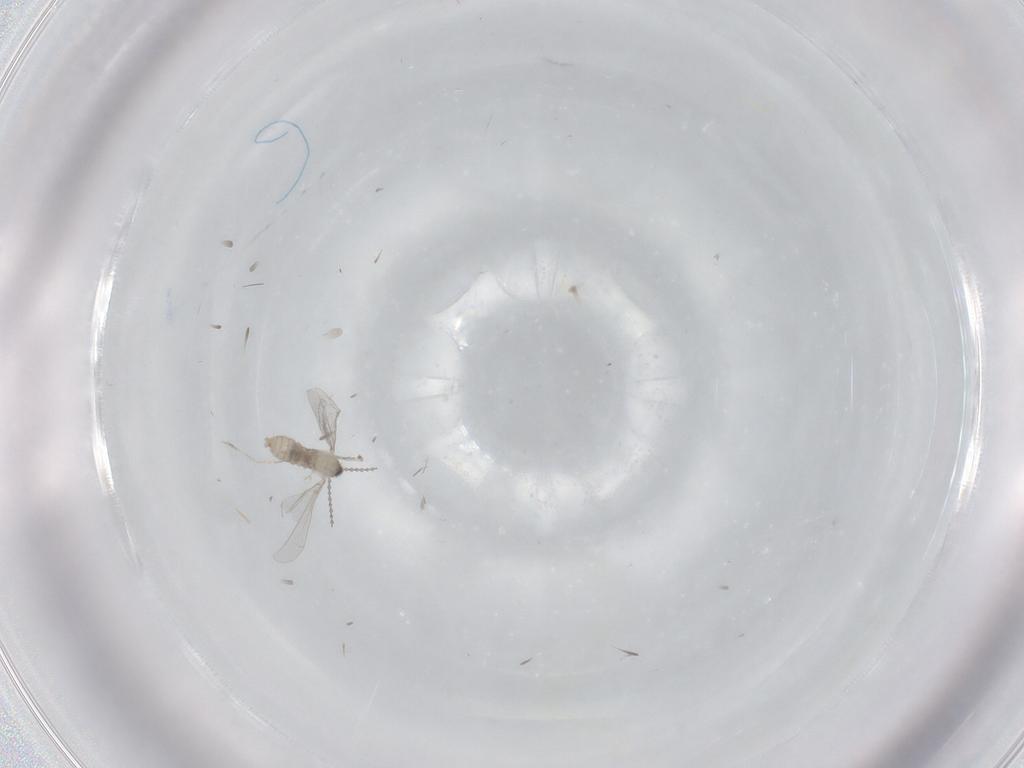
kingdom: Animalia
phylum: Arthropoda
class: Insecta
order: Diptera
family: Cecidomyiidae
